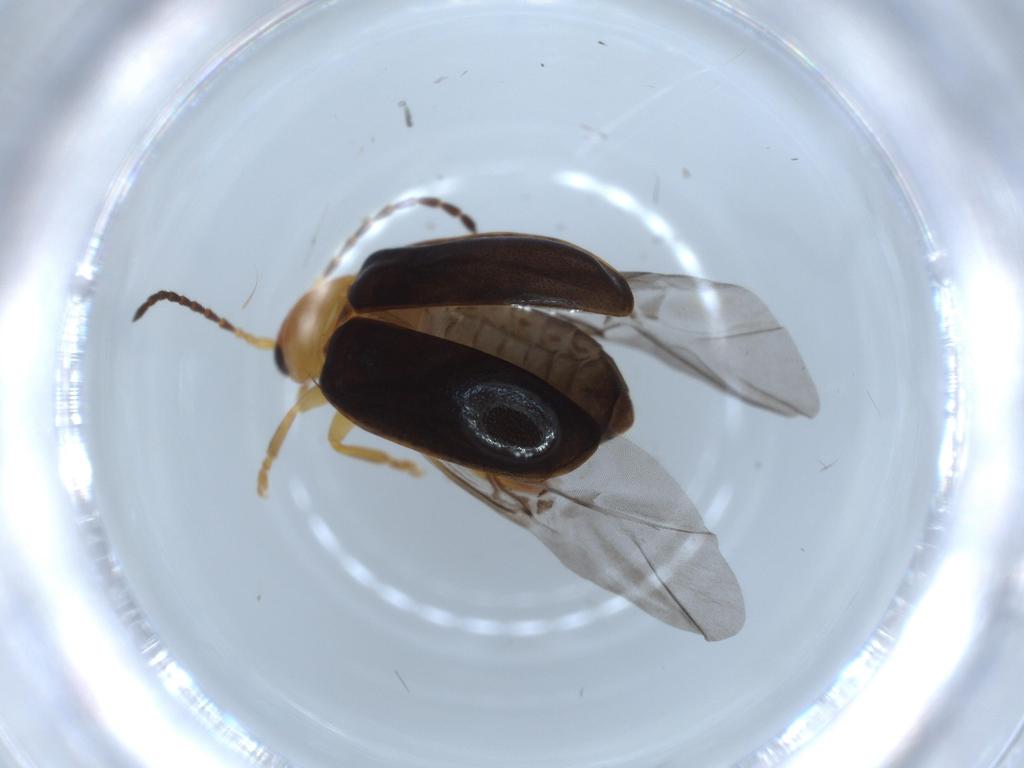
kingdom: Animalia
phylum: Arthropoda
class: Insecta
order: Coleoptera
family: Chrysomelidae
